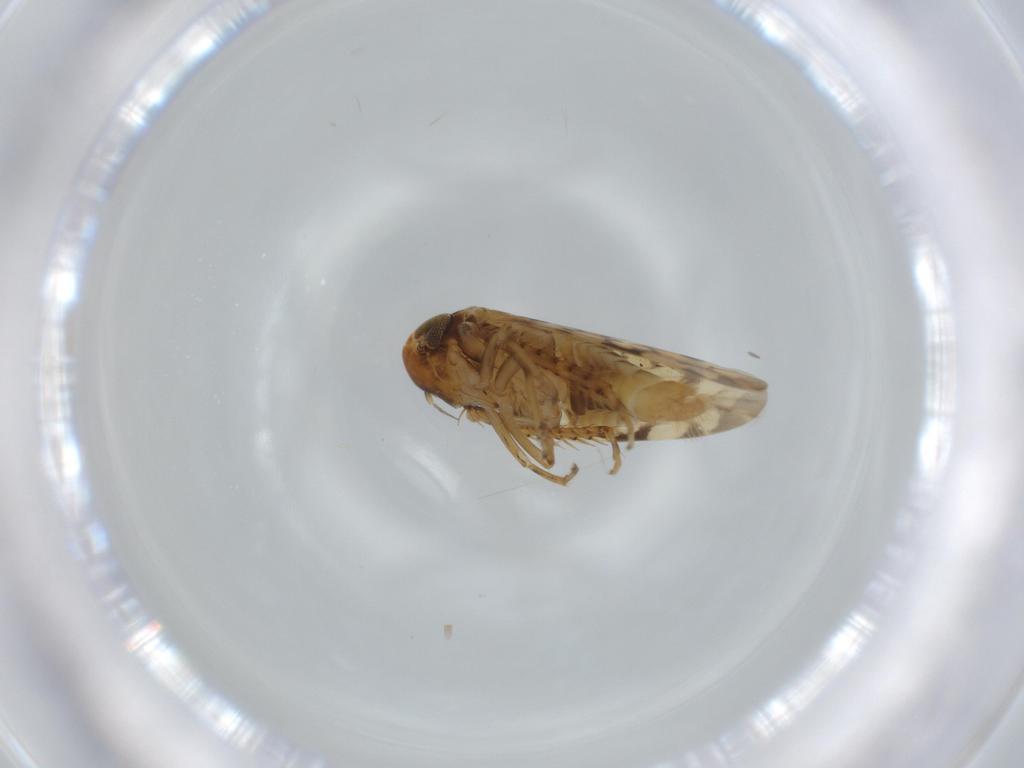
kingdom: Animalia
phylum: Arthropoda
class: Insecta
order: Hemiptera
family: Cicadellidae
